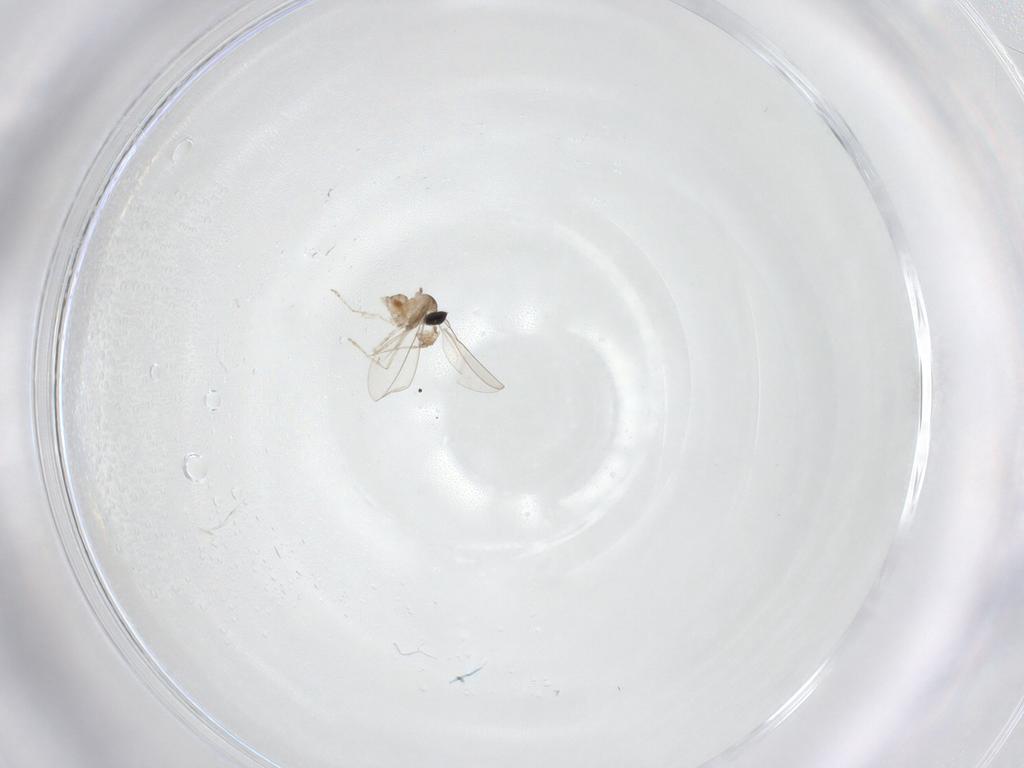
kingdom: Animalia
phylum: Arthropoda
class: Insecta
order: Diptera
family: Cecidomyiidae
